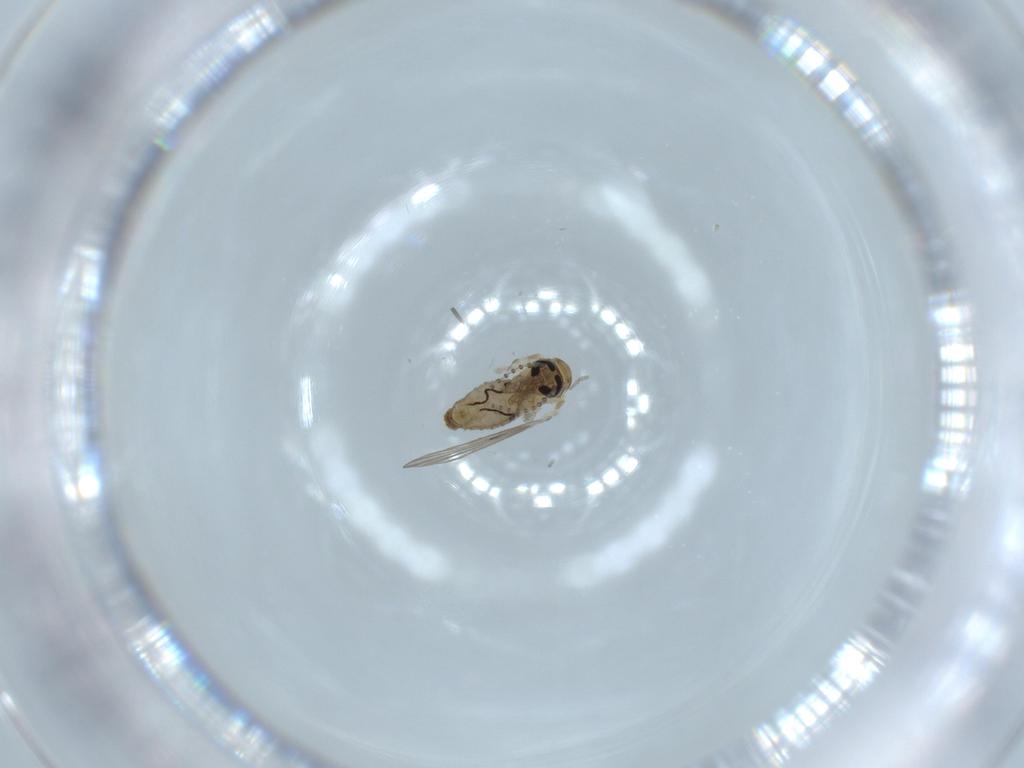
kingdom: Animalia
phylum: Arthropoda
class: Insecta
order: Diptera
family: Psychodidae
